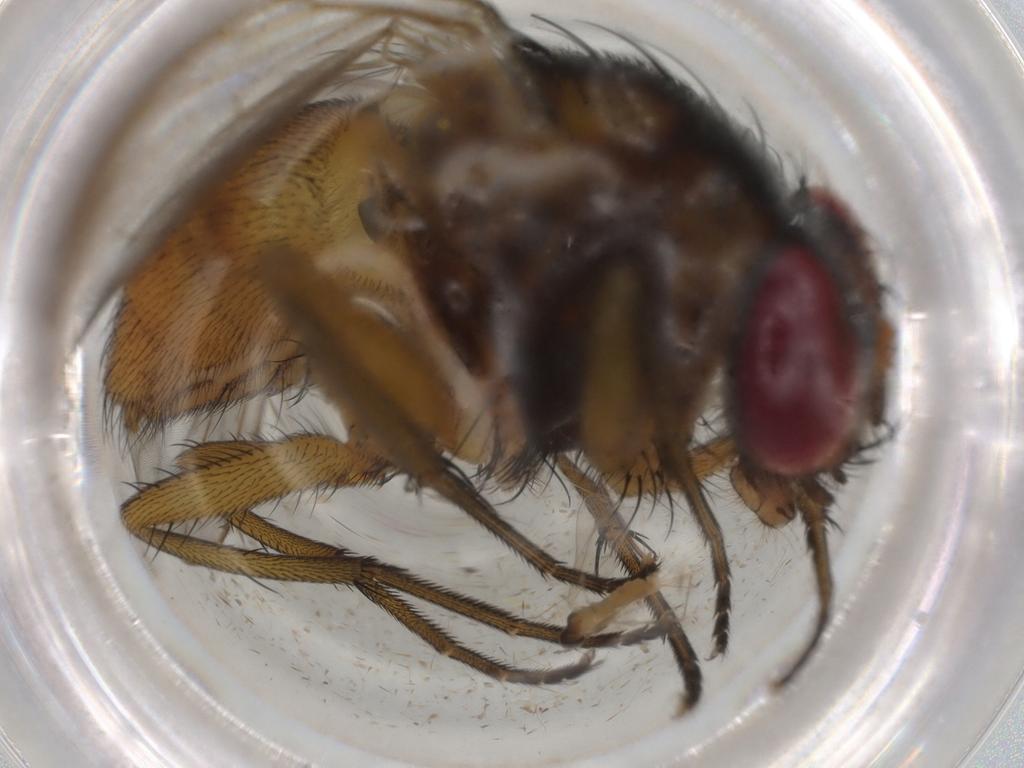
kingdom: Animalia
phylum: Arthropoda
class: Insecta
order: Diptera
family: Muscidae
